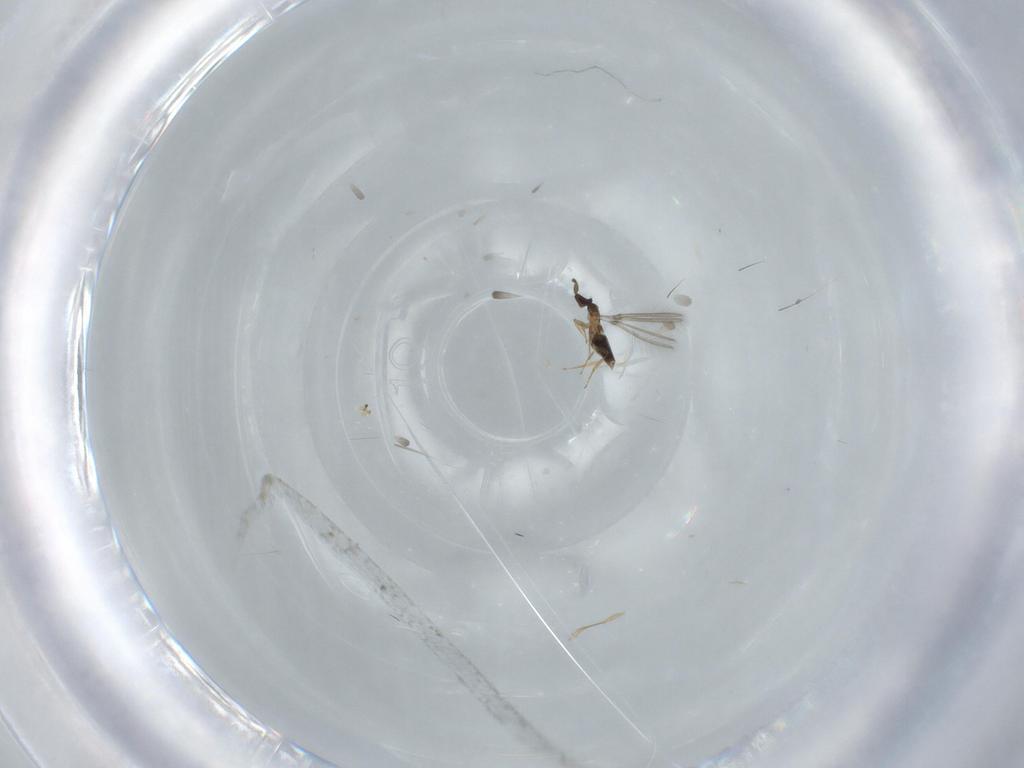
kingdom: Animalia
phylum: Arthropoda
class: Insecta
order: Hymenoptera
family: Mymaridae
